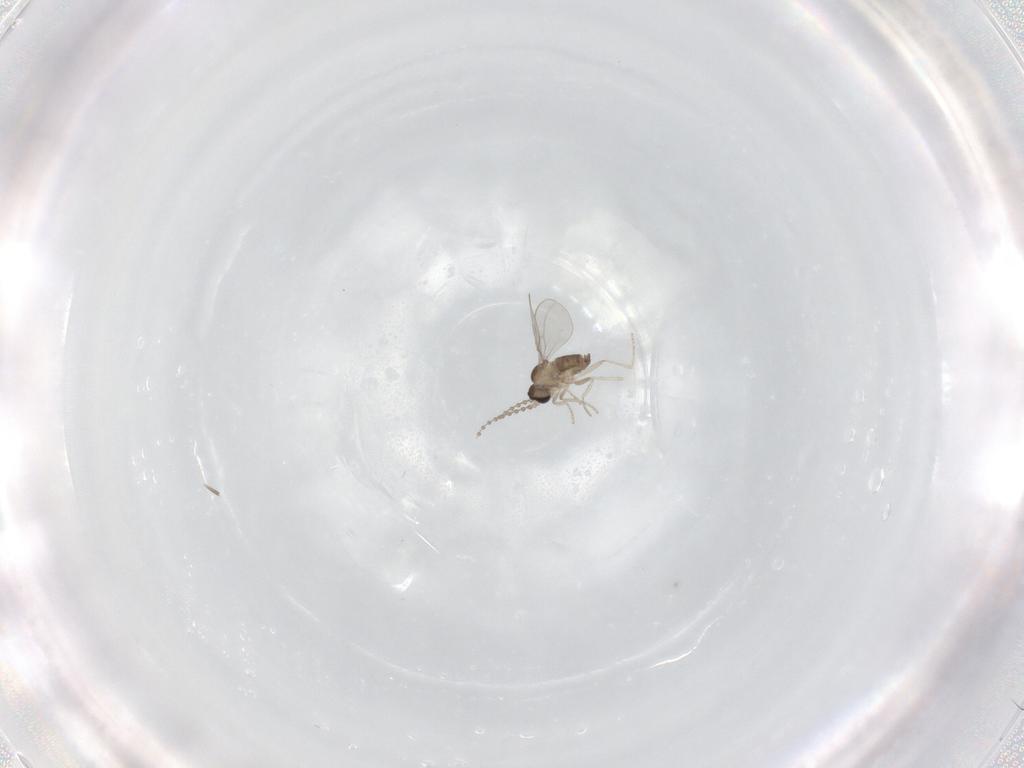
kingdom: Animalia
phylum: Arthropoda
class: Insecta
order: Diptera
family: Cecidomyiidae
